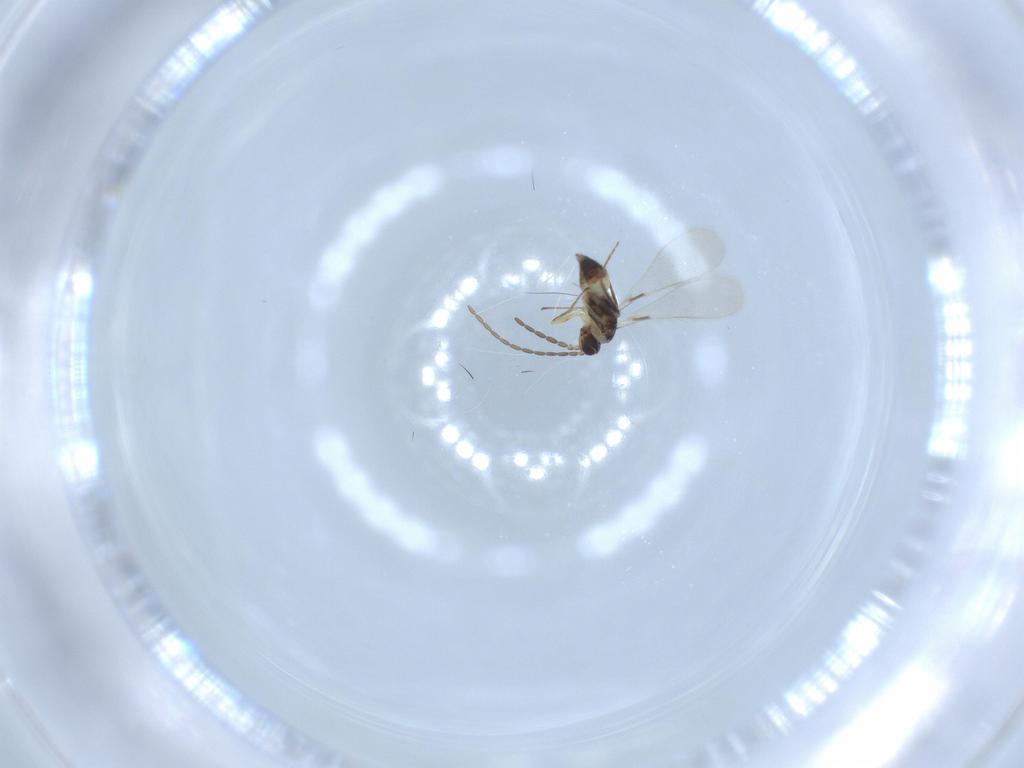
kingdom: Animalia
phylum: Arthropoda
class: Insecta
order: Hymenoptera
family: Mymaridae
